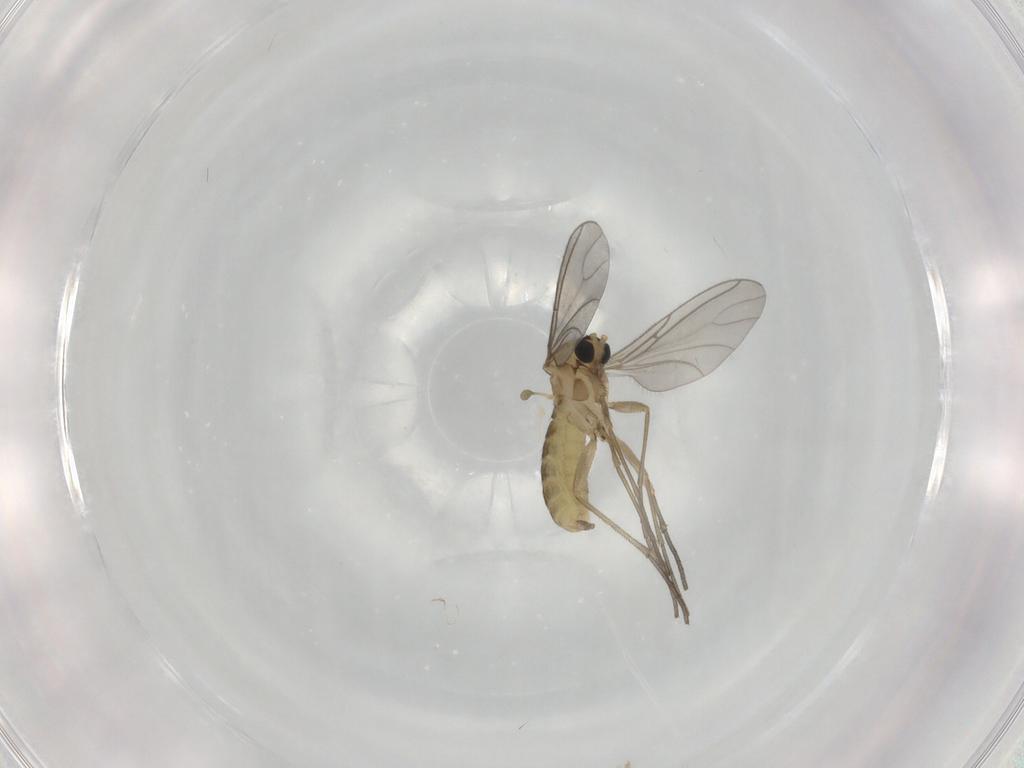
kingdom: Animalia
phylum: Arthropoda
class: Insecta
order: Diptera
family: Sciaridae
